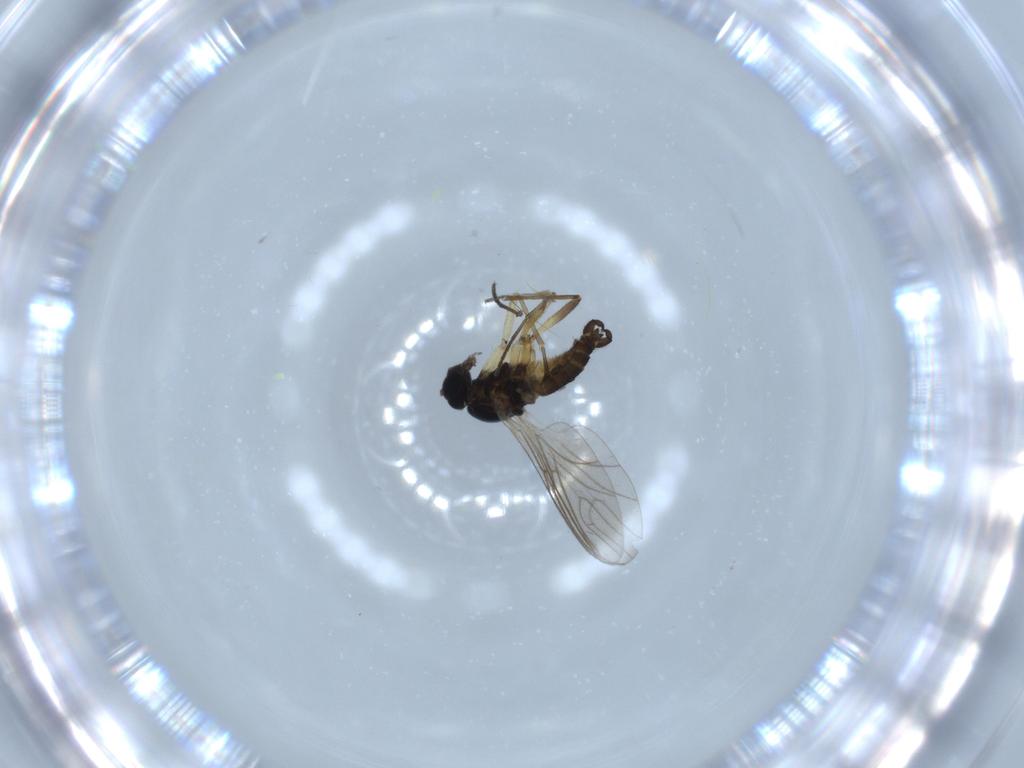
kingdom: Animalia
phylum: Arthropoda
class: Insecta
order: Diptera
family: Sciaridae
